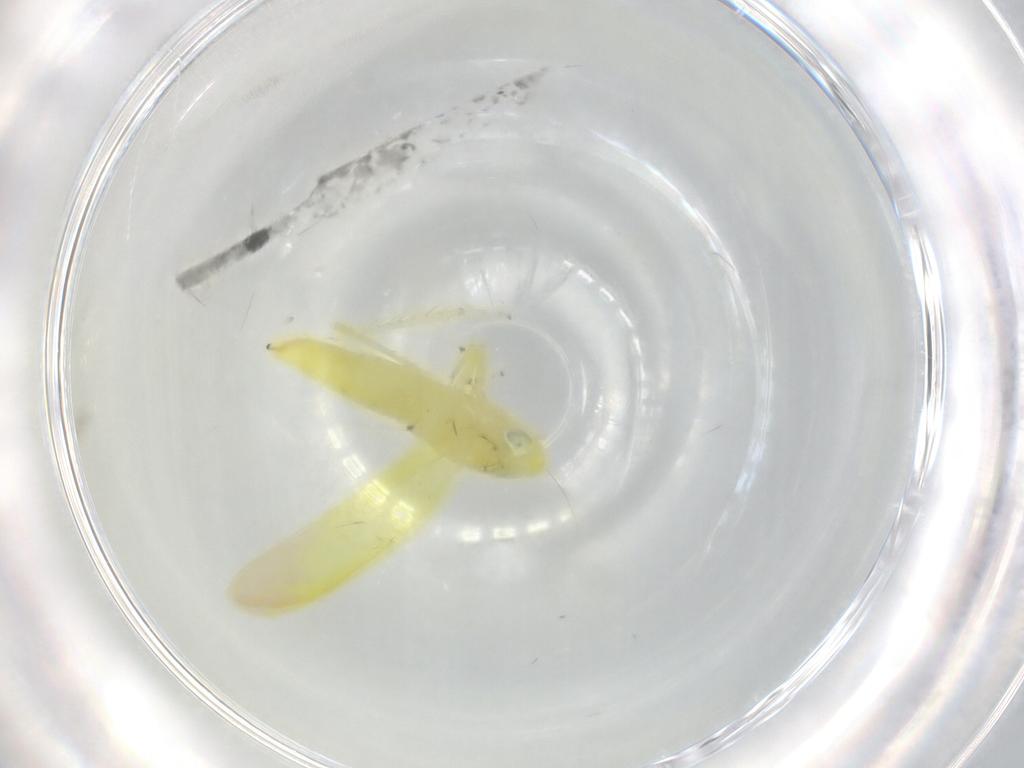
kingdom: Animalia
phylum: Arthropoda
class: Insecta
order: Hemiptera
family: Cicadellidae
